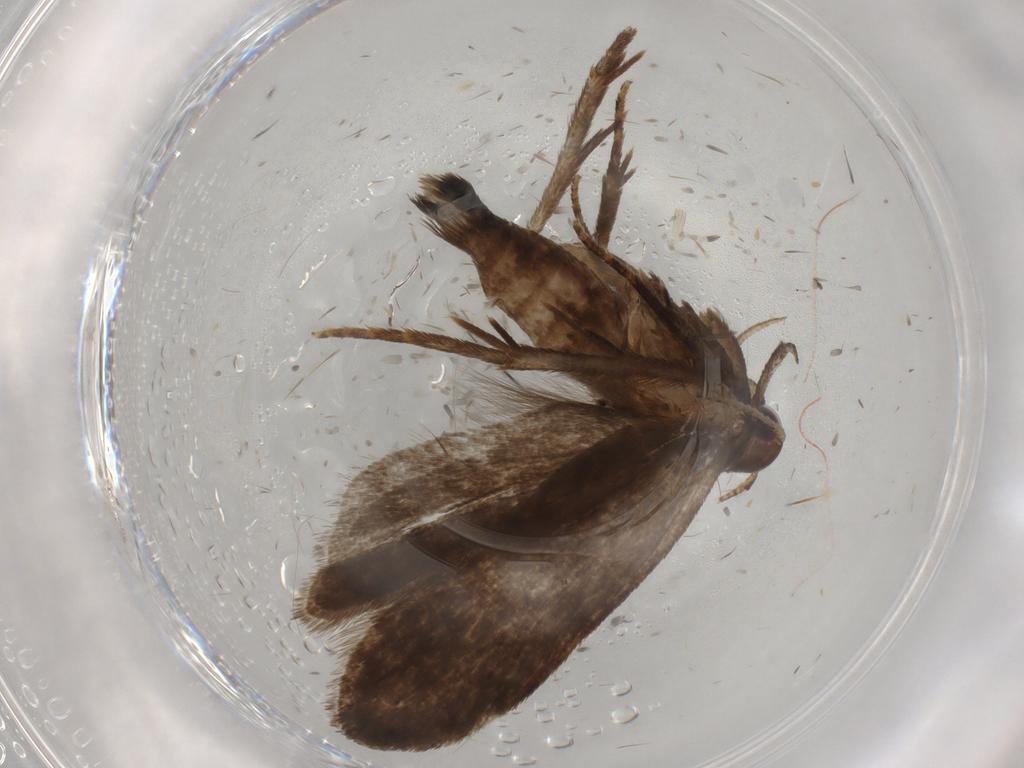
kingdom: Animalia
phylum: Arthropoda
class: Insecta
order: Lepidoptera
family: Gelechiidae
